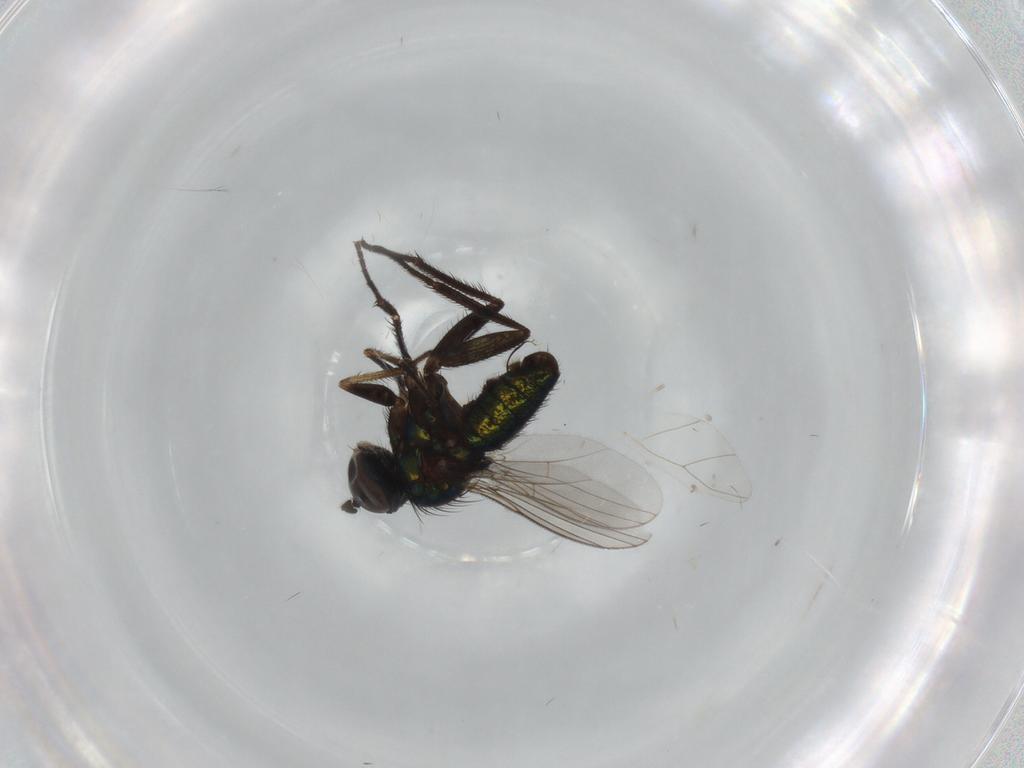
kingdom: Animalia
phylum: Arthropoda
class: Insecta
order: Diptera
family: Dolichopodidae
